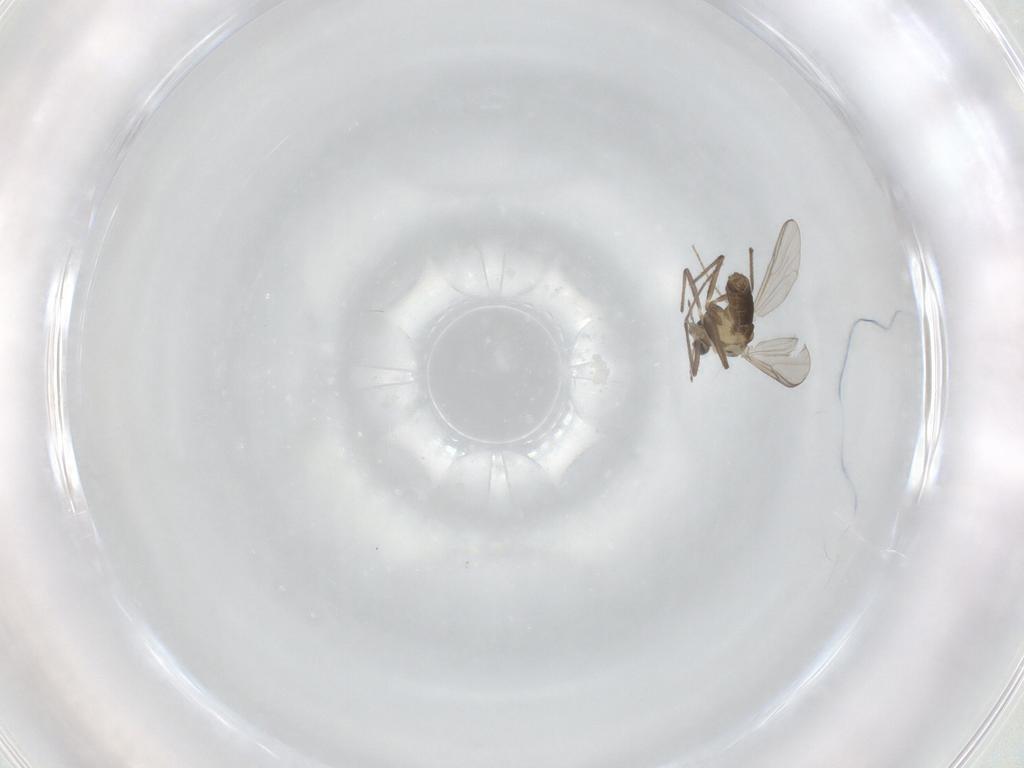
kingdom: Animalia
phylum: Arthropoda
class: Insecta
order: Diptera
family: Chironomidae
